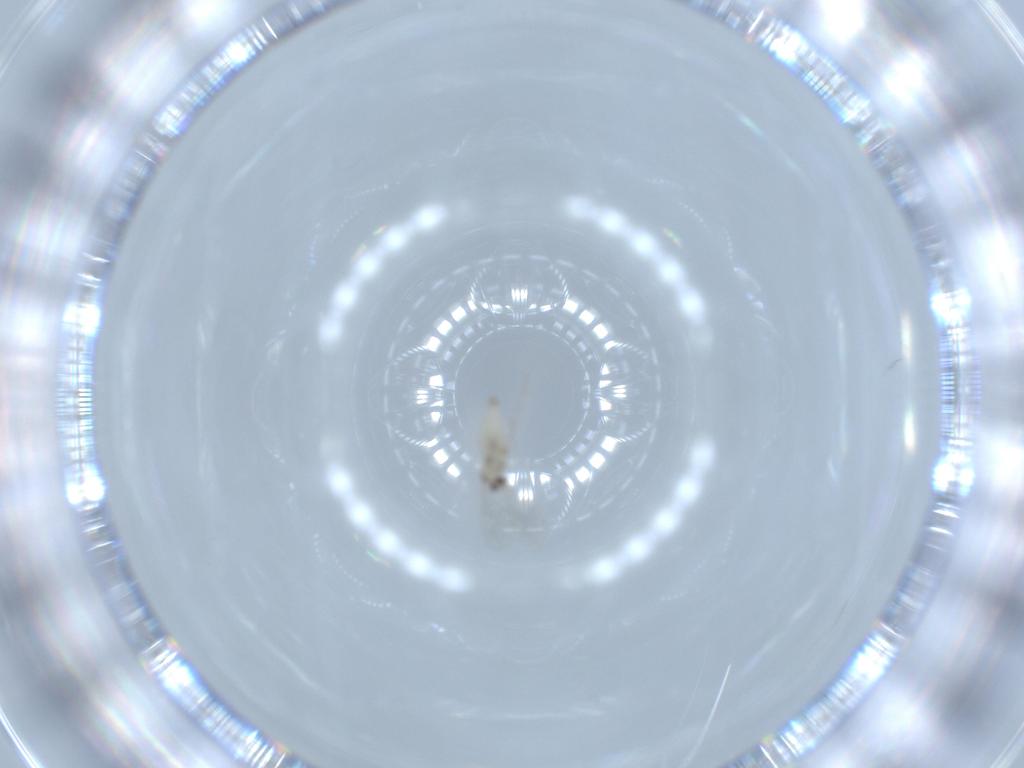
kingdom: Animalia
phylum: Arthropoda
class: Insecta
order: Diptera
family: Cecidomyiidae
